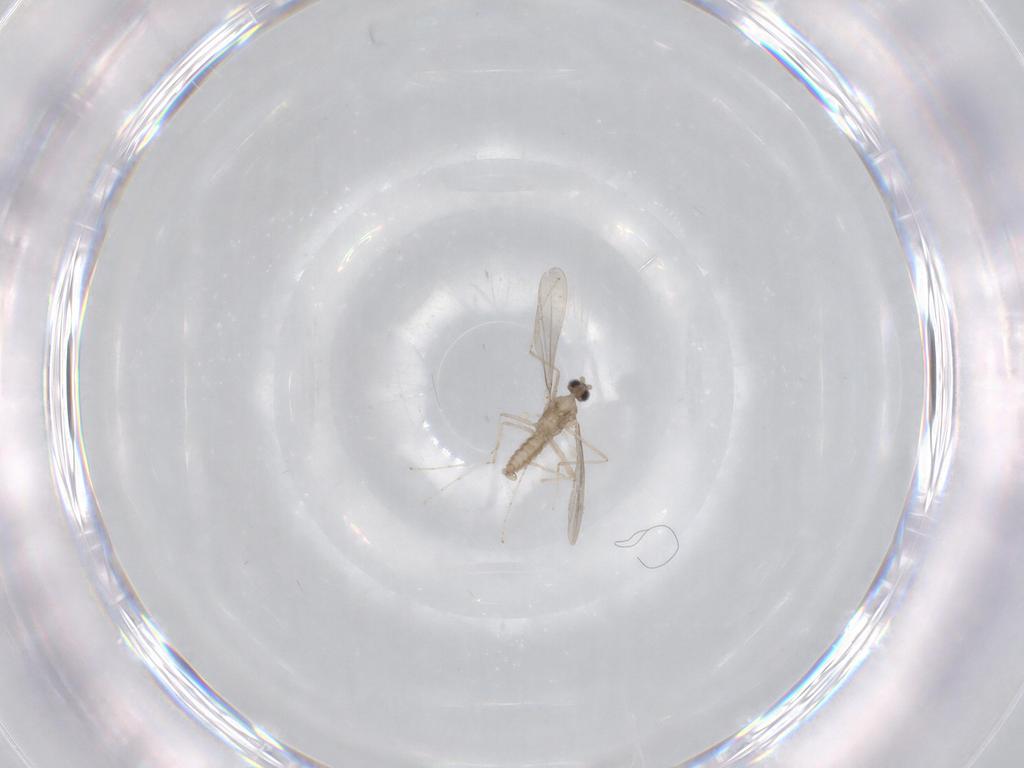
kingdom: Animalia
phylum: Arthropoda
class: Insecta
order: Diptera
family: Cecidomyiidae
